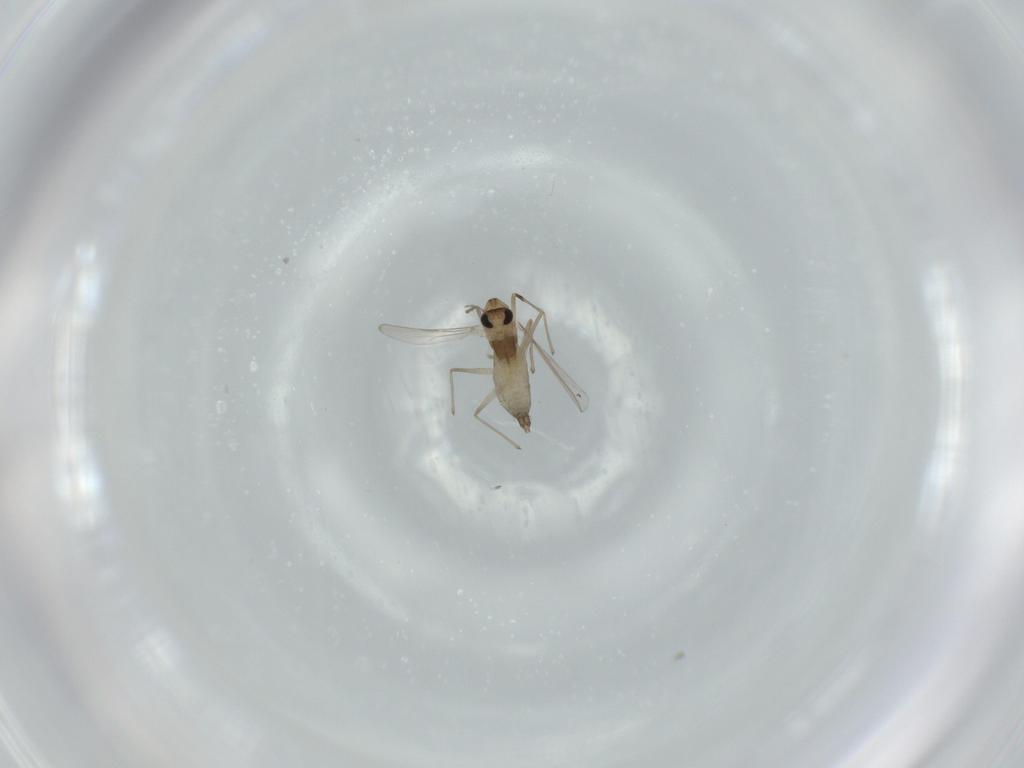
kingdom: Animalia
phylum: Arthropoda
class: Insecta
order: Diptera
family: Chironomidae
